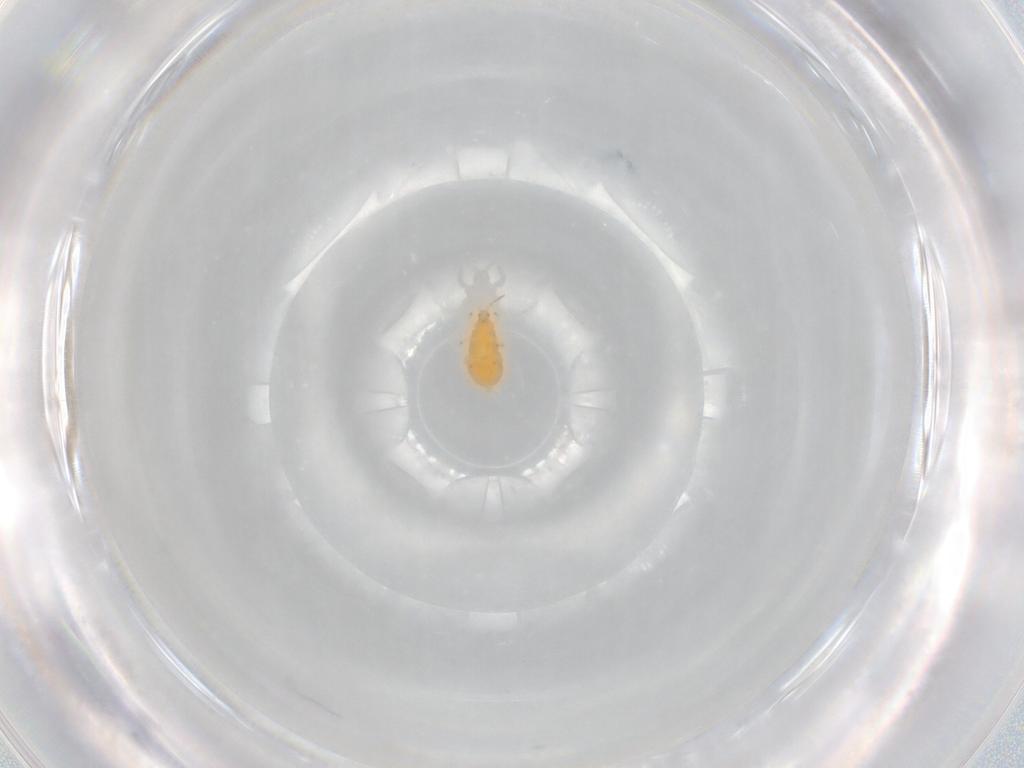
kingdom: Animalia
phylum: Arthropoda
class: Insecta
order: Thysanoptera
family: Heterothripidae
